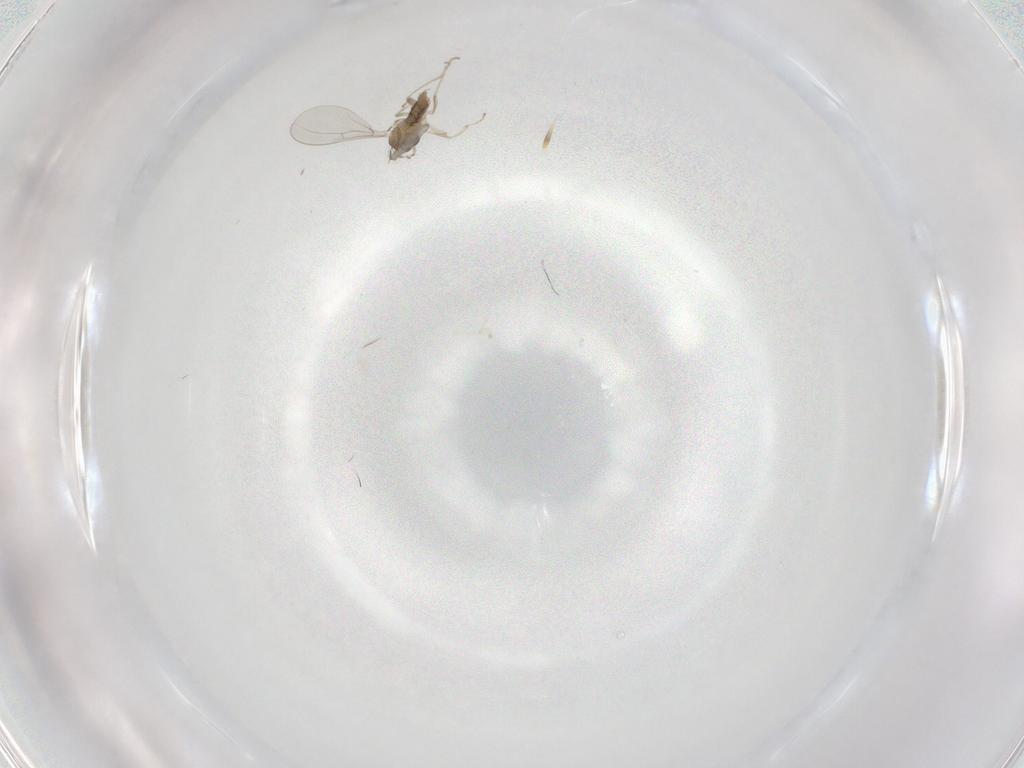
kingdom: Animalia
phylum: Arthropoda
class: Insecta
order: Diptera
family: Cecidomyiidae
